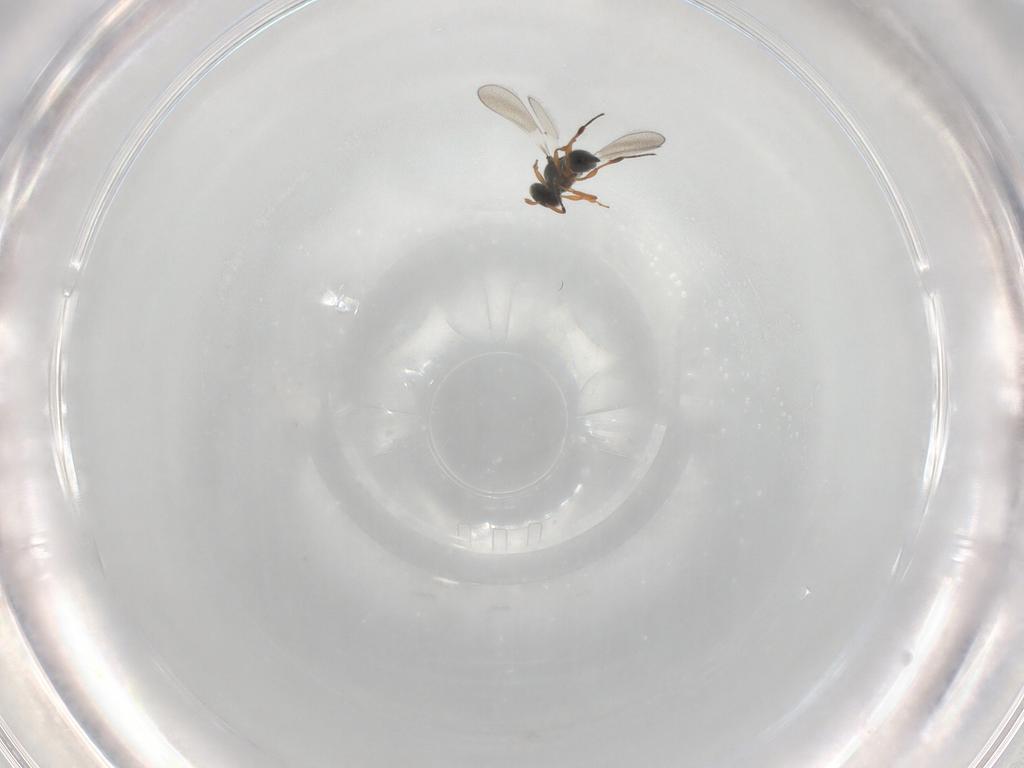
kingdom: Animalia
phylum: Arthropoda
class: Insecta
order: Hymenoptera
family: Platygastridae
